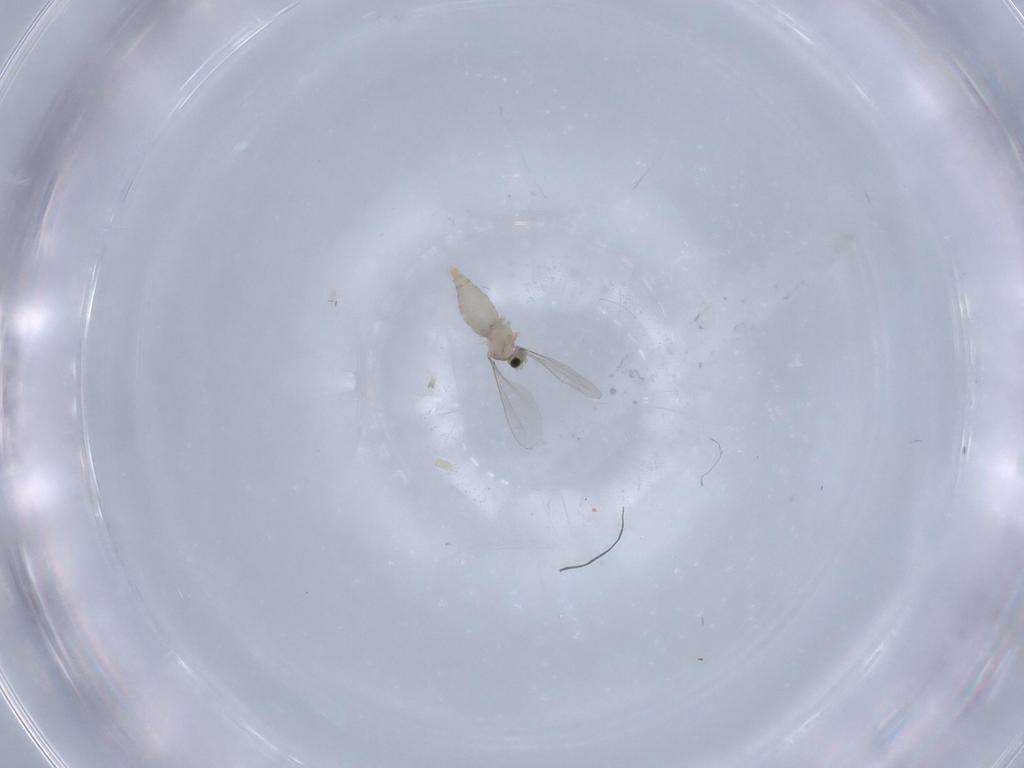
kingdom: Animalia
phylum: Arthropoda
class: Insecta
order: Diptera
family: Cecidomyiidae
